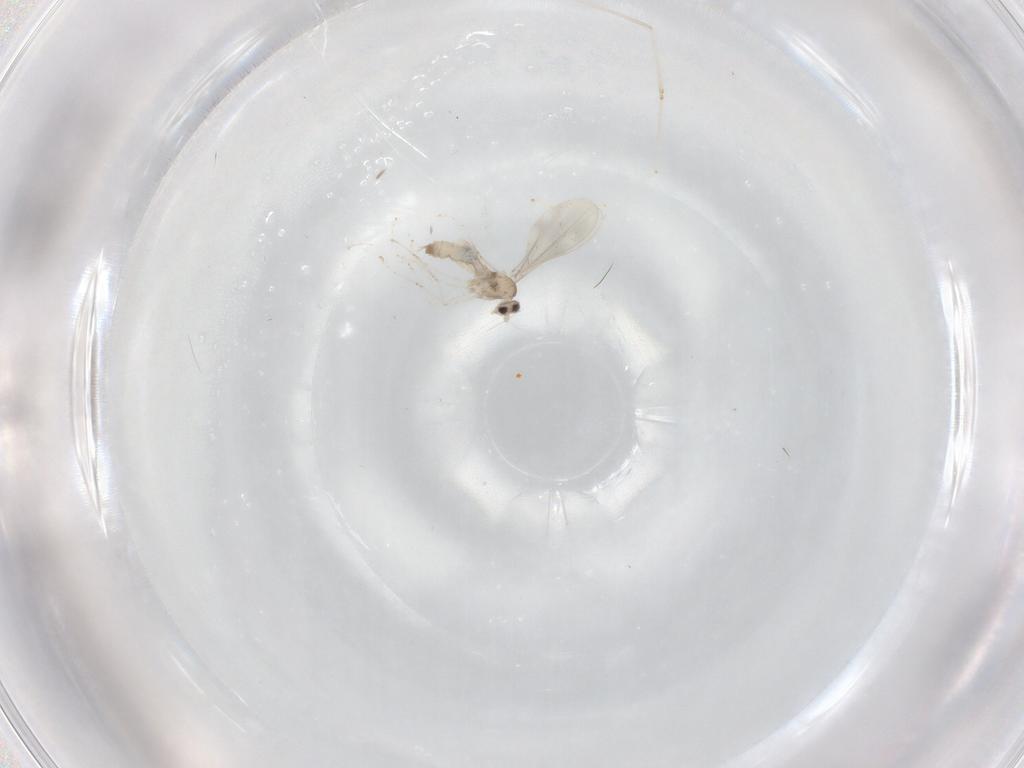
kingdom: Animalia
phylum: Arthropoda
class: Insecta
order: Diptera
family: Cecidomyiidae
